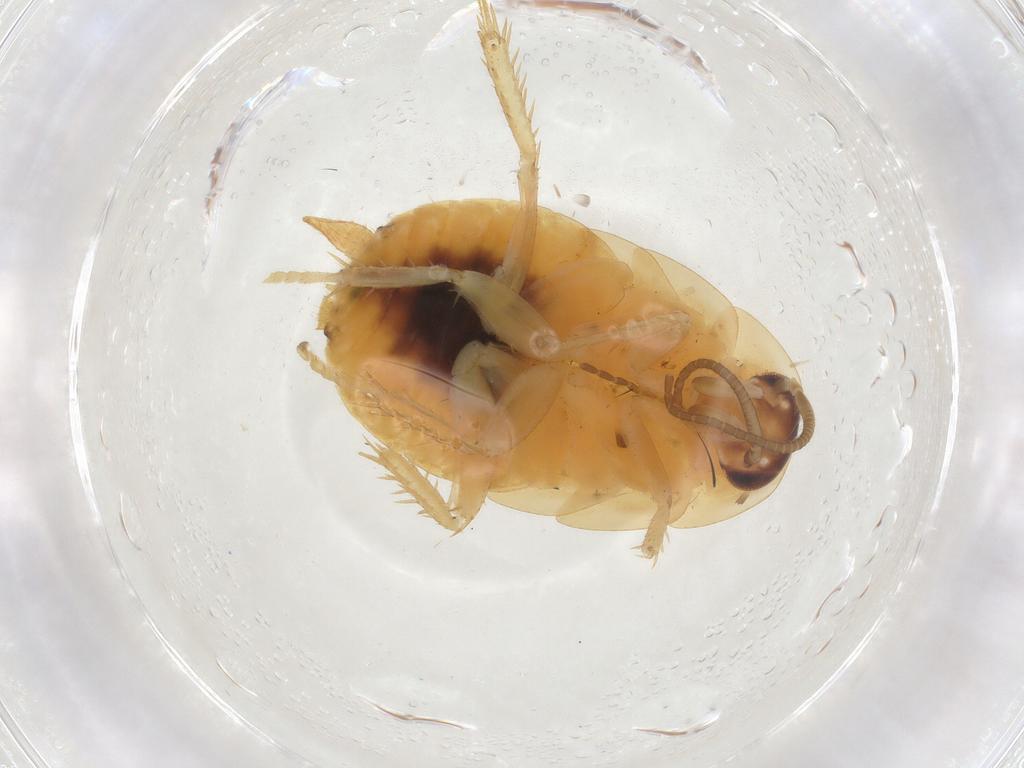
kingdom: Animalia
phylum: Arthropoda
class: Insecta
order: Blattodea
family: Ectobiidae
